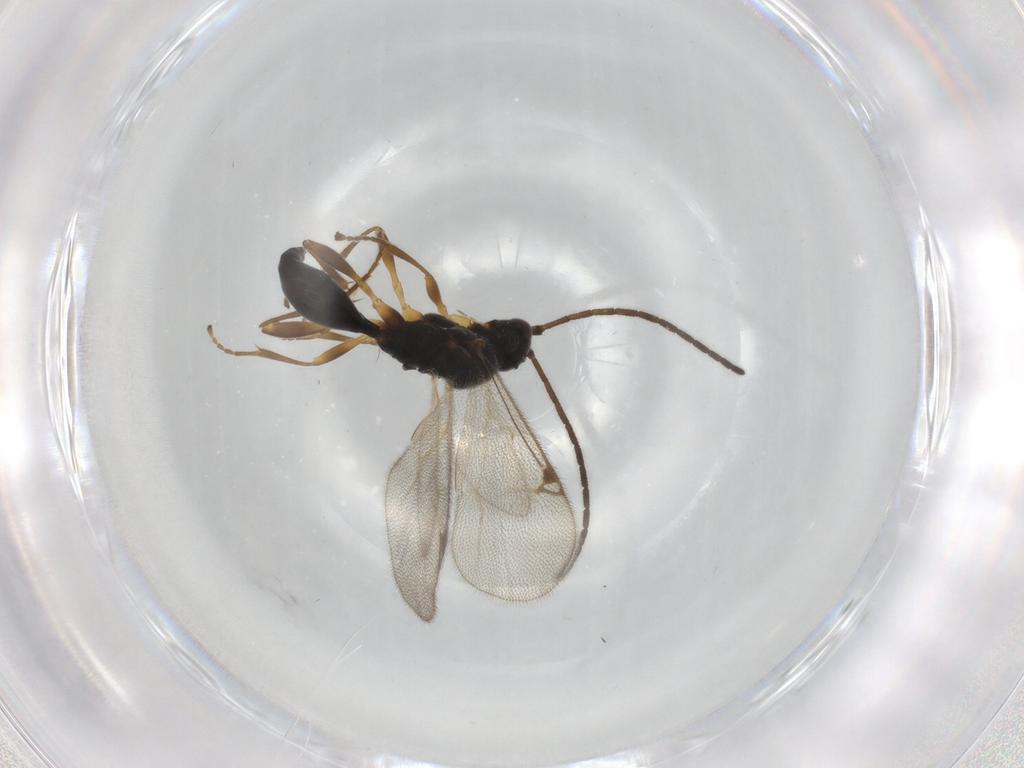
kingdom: Animalia
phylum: Arthropoda
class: Insecta
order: Hymenoptera
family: Proctotrupidae
